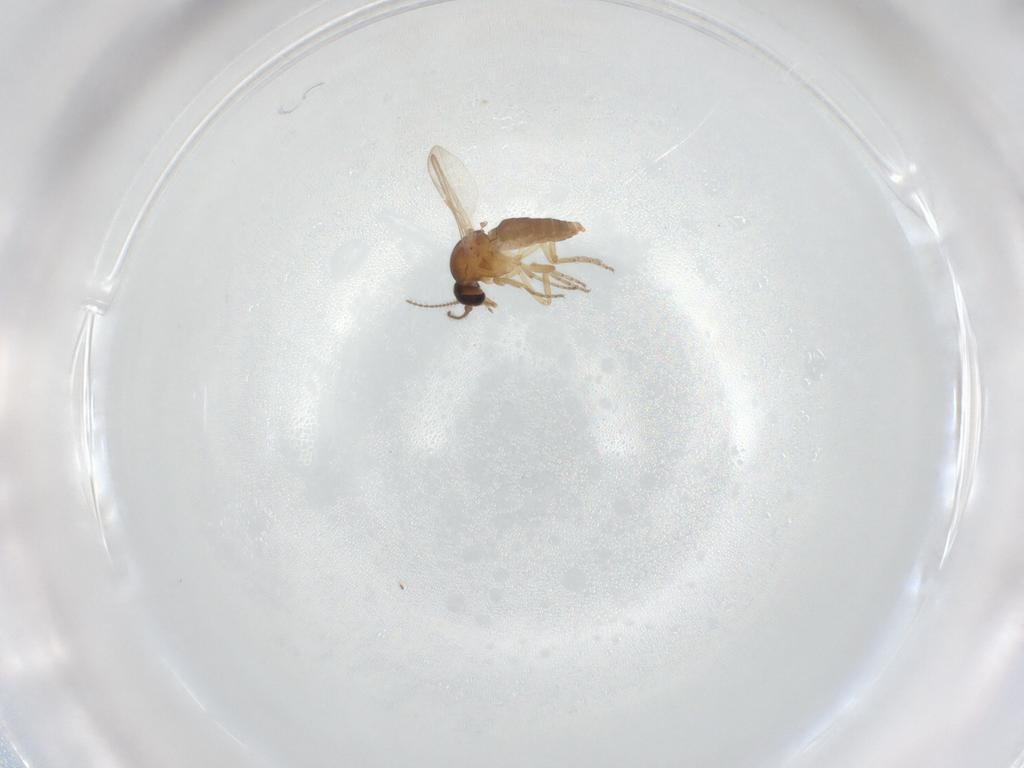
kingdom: Animalia
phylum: Arthropoda
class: Insecta
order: Diptera
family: Ceratopogonidae
